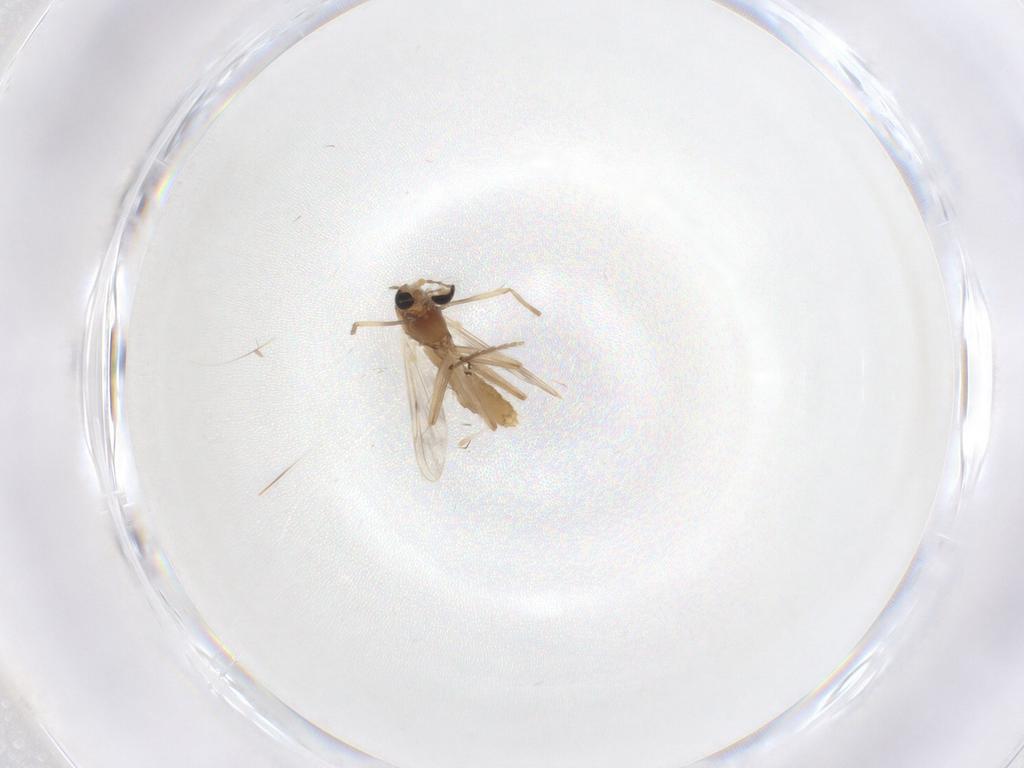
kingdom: Animalia
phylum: Arthropoda
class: Insecta
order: Diptera
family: Chironomidae
